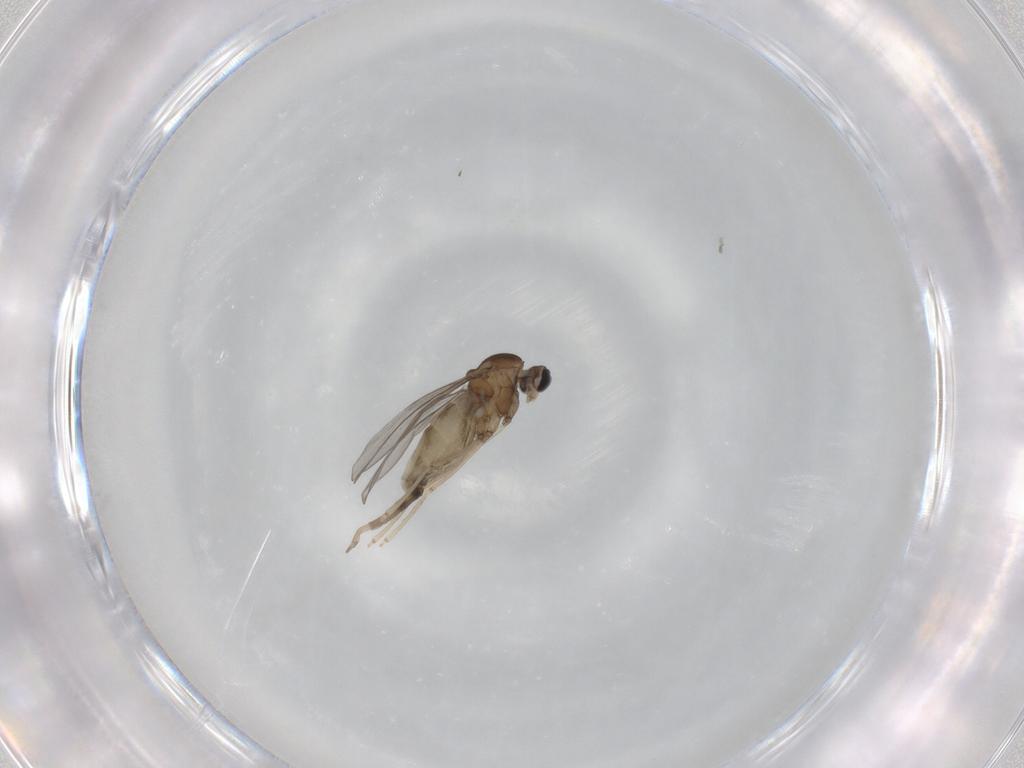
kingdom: Animalia
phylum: Arthropoda
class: Insecta
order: Diptera
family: Cecidomyiidae
